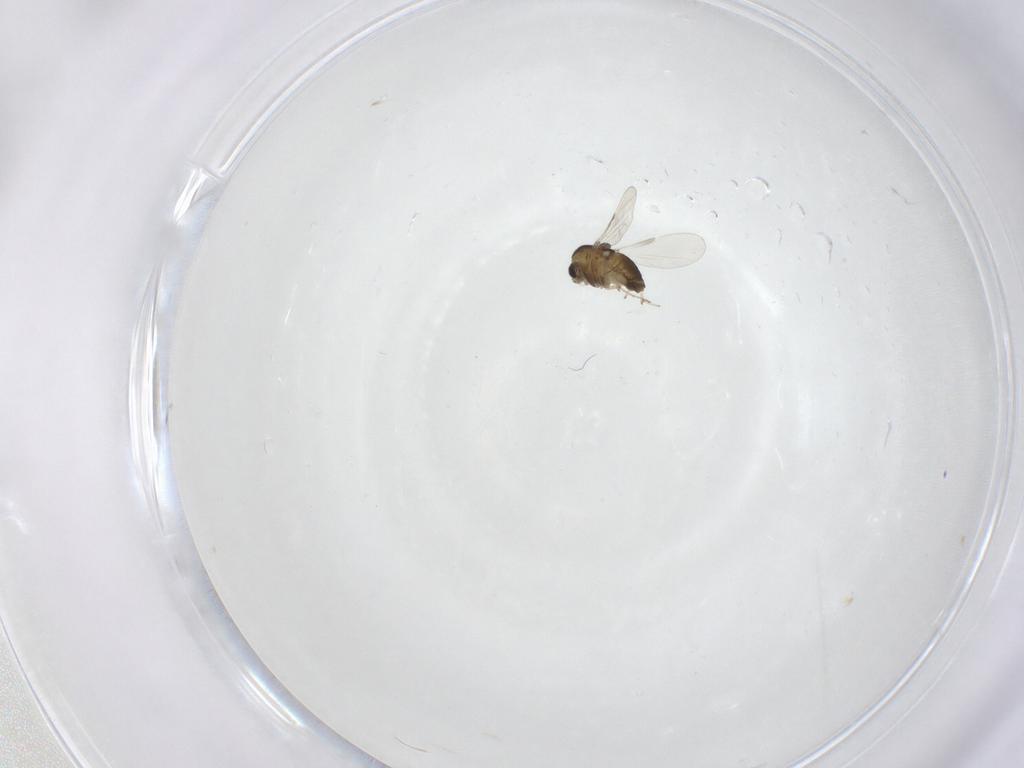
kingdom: Animalia
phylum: Arthropoda
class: Insecta
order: Diptera
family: Chironomidae
